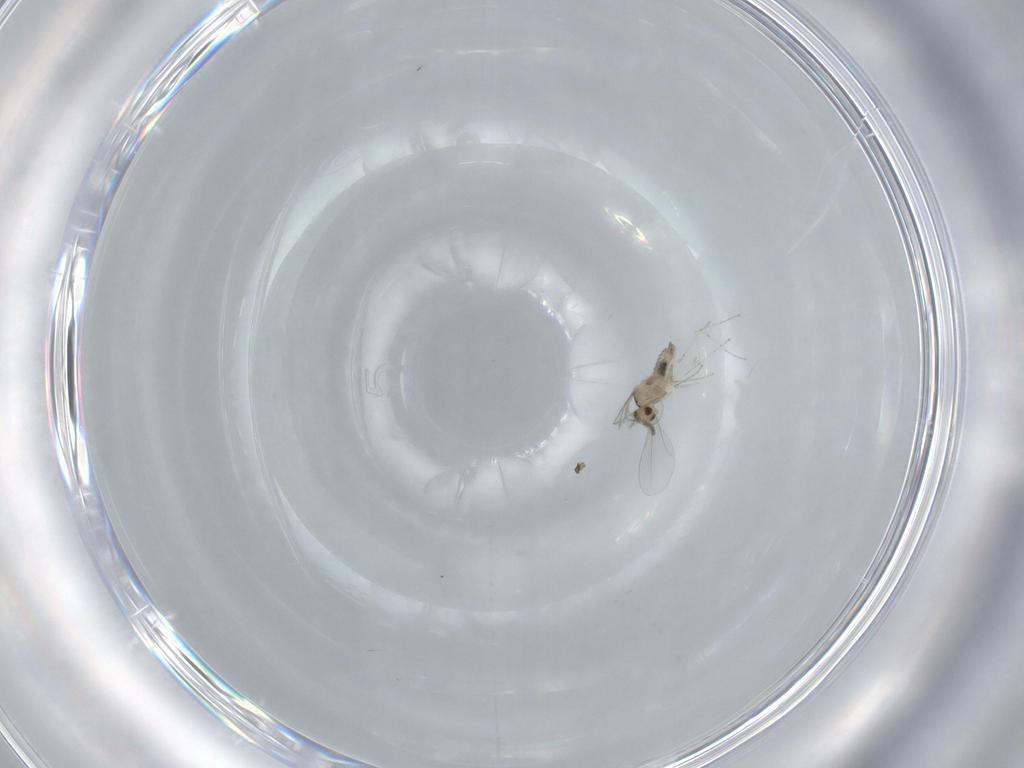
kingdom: Animalia
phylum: Arthropoda
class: Insecta
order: Diptera
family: Cecidomyiidae
